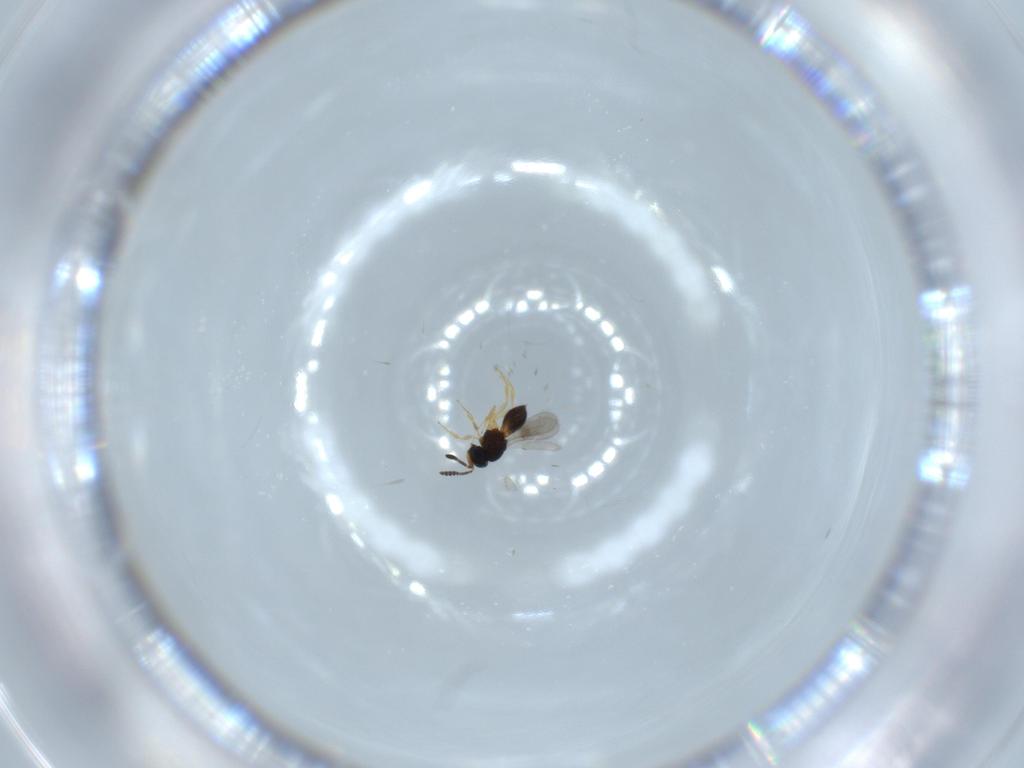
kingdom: Animalia
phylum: Arthropoda
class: Insecta
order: Hymenoptera
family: Scelionidae
